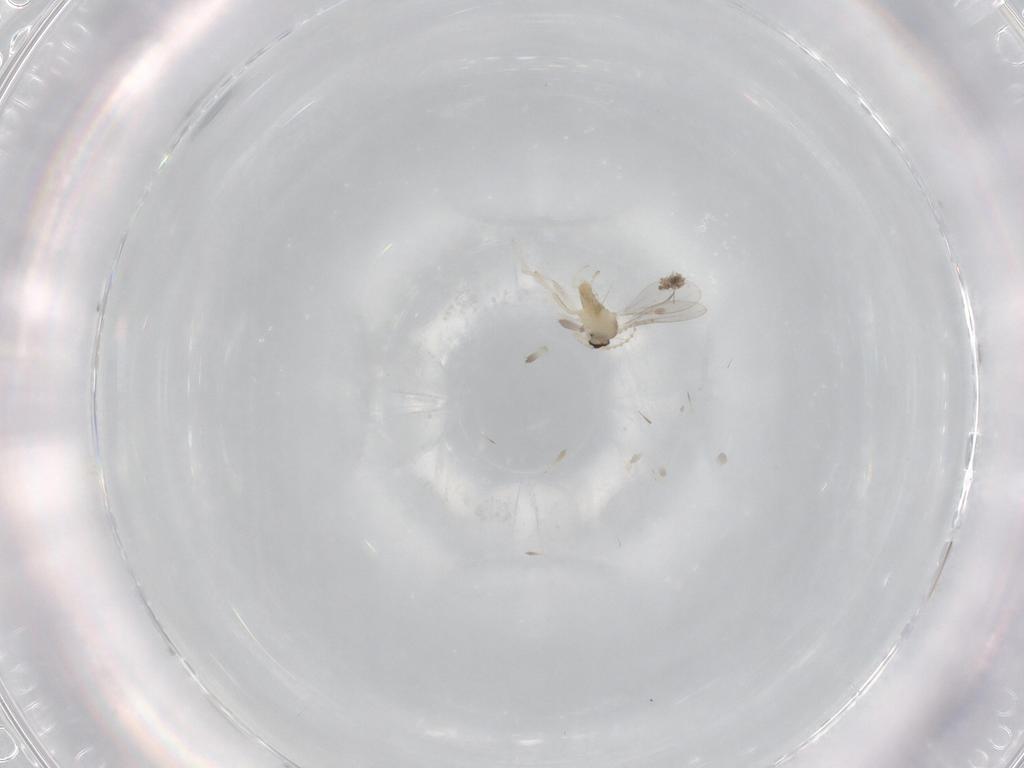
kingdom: Animalia
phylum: Arthropoda
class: Insecta
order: Diptera
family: Cecidomyiidae
